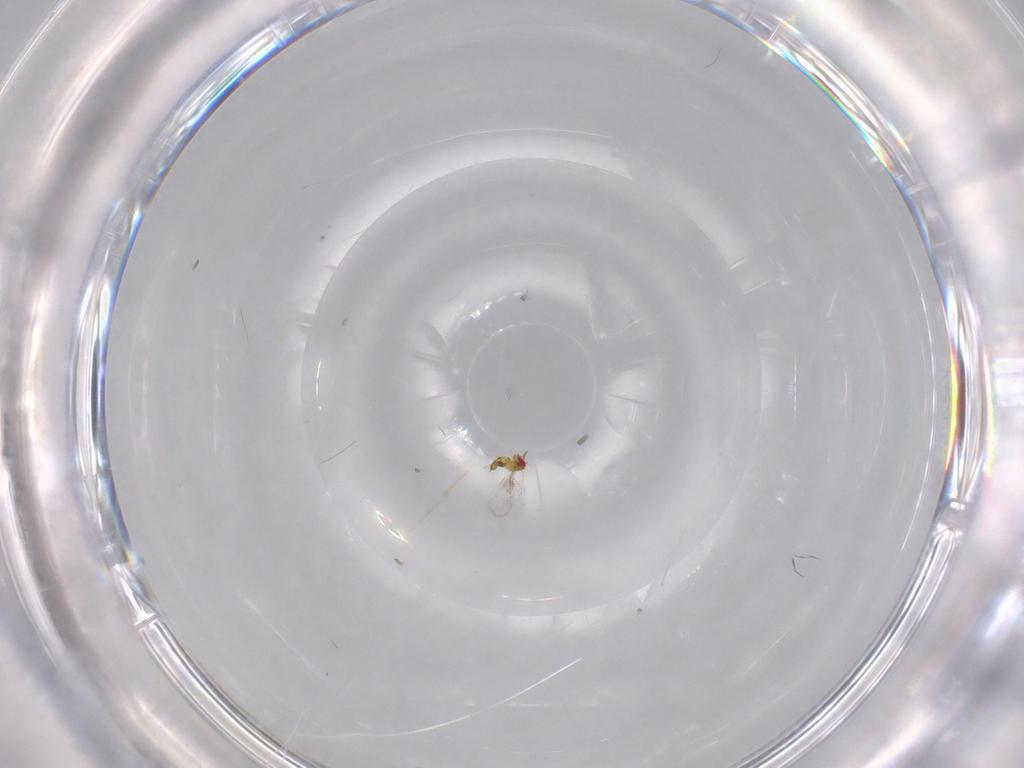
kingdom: Animalia
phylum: Arthropoda
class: Insecta
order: Hymenoptera
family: Trichogrammatidae
